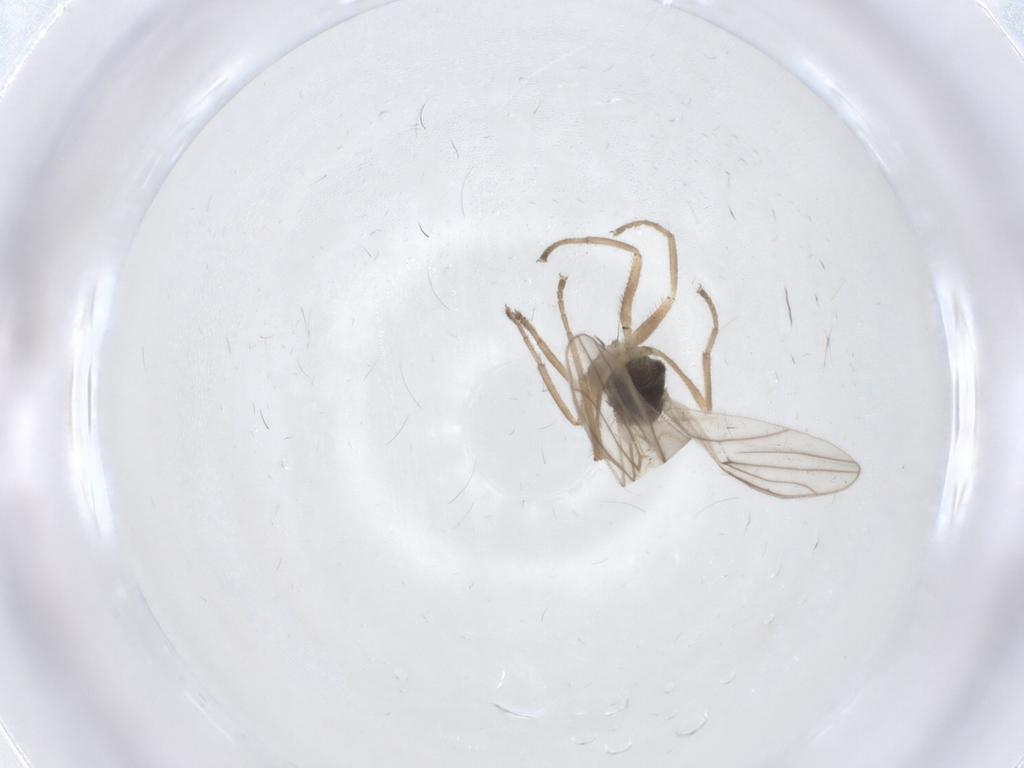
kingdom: Animalia
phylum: Arthropoda
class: Insecta
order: Diptera
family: Hybotidae
